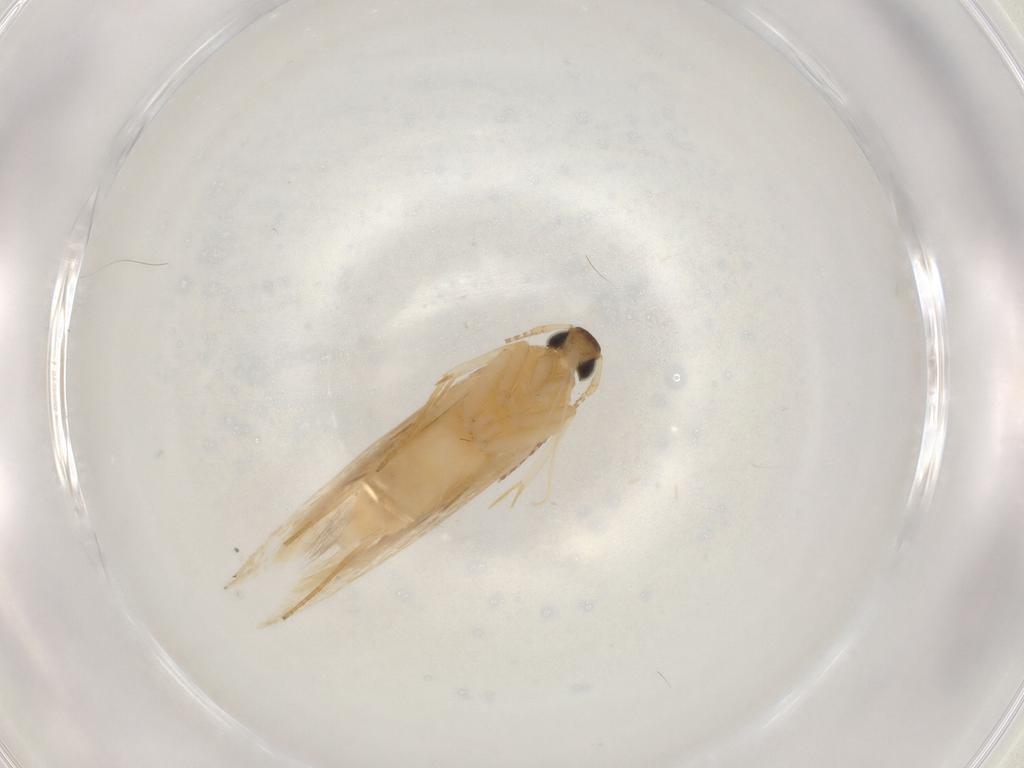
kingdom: Animalia
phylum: Arthropoda
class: Insecta
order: Lepidoptera
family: Lecithoceridae
